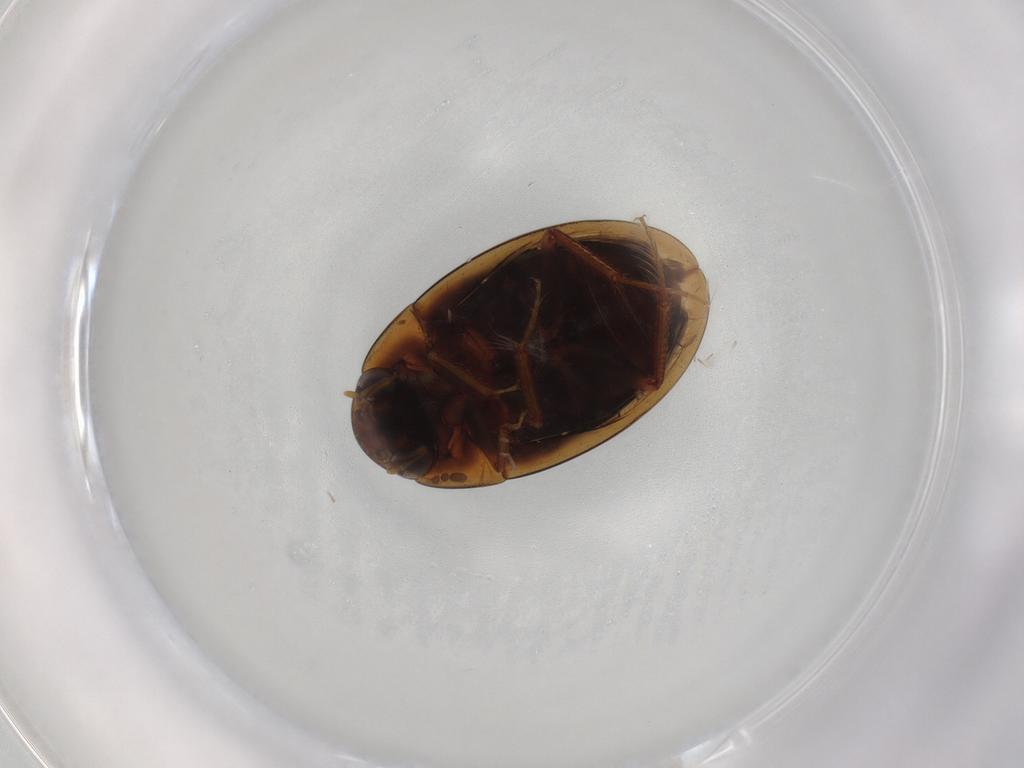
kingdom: Animalia
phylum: Arthropoda
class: Insecta
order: Coleoptera
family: Hydrophilidae
